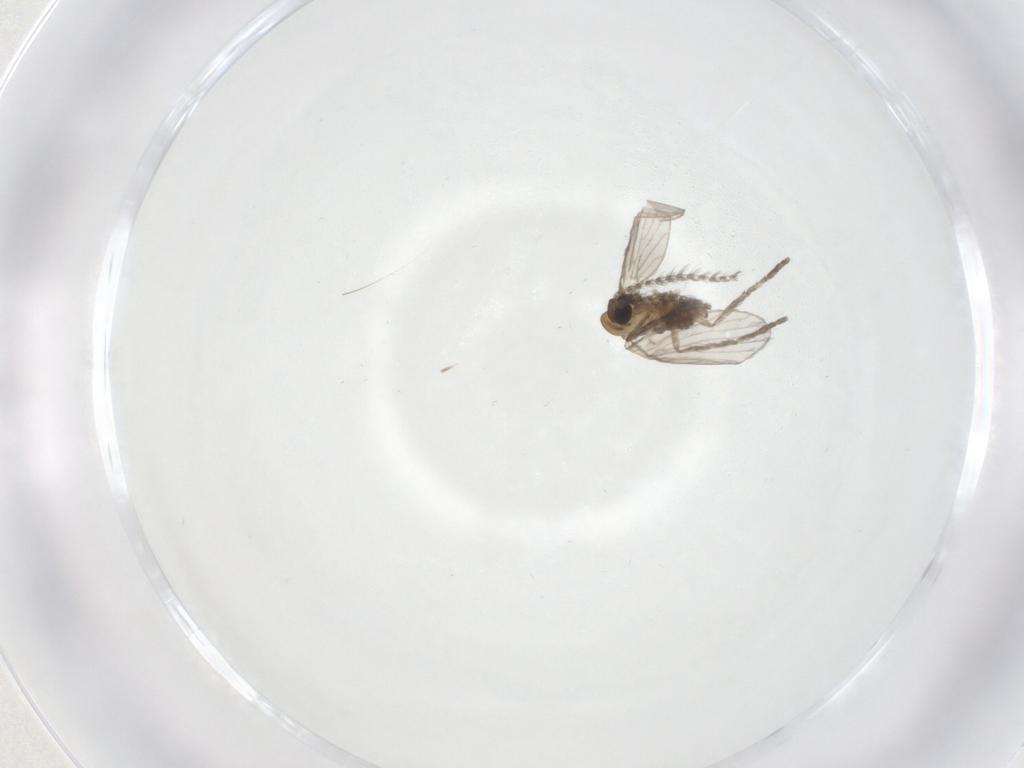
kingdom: Animalia
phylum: Arthropoda
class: Insecta
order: Diptera
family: Psychodidae
